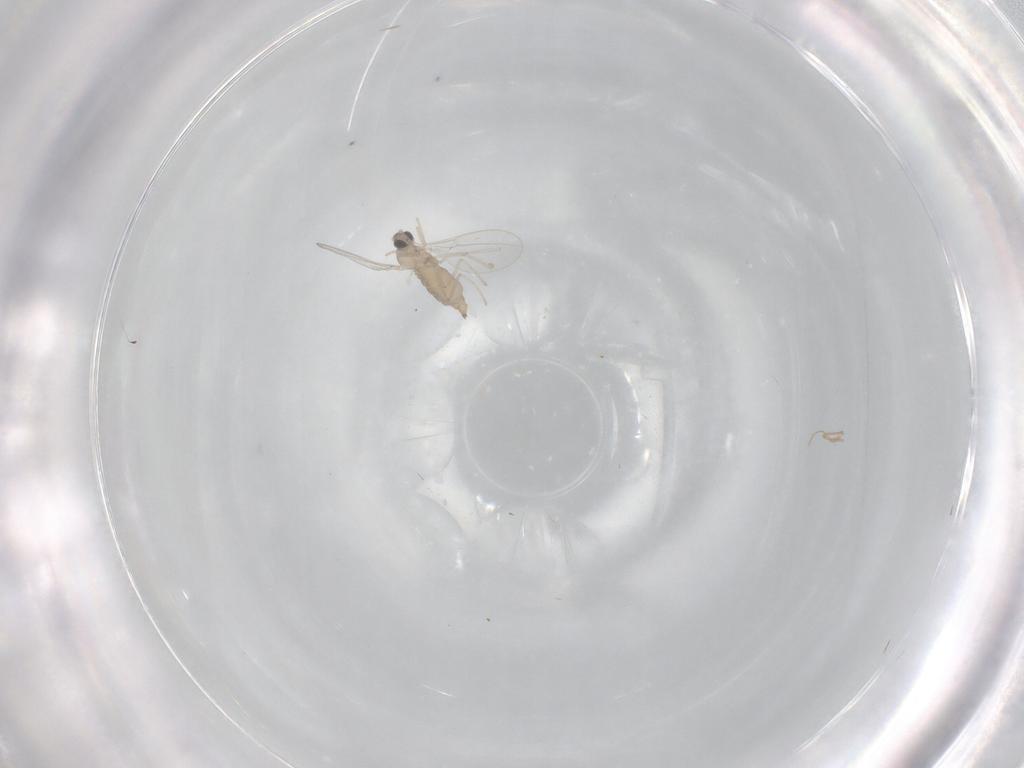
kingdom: Animalia
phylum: Arthropoda
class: Insecta
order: Diptera
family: Cecidomyiidae
